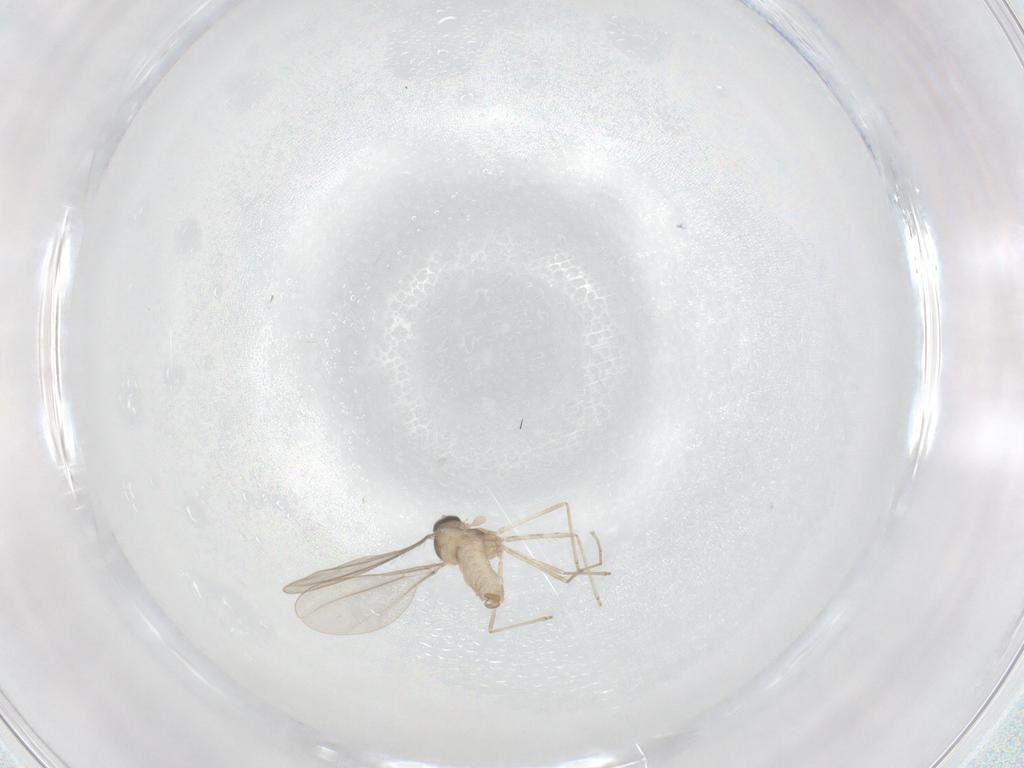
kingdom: Animalia
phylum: Arthropoda
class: Insecta
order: Diptera
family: Cecidomyiidae
